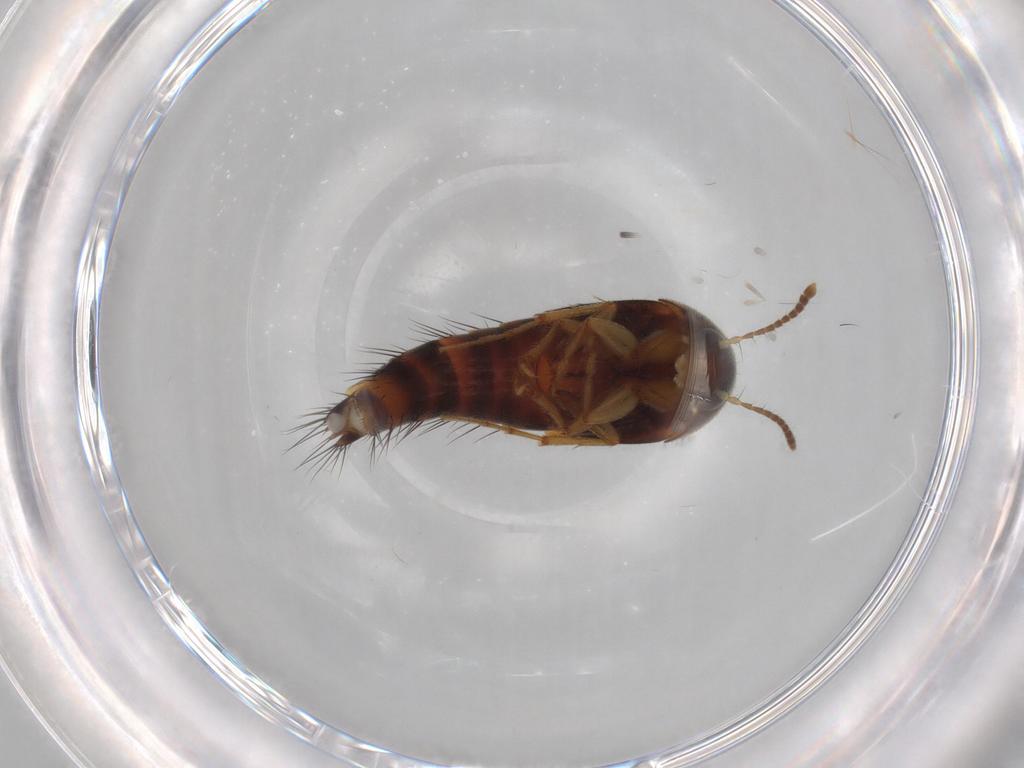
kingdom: Animalia
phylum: Arthropoda
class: Insecta
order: Coleoptera
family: Staphylinidae
